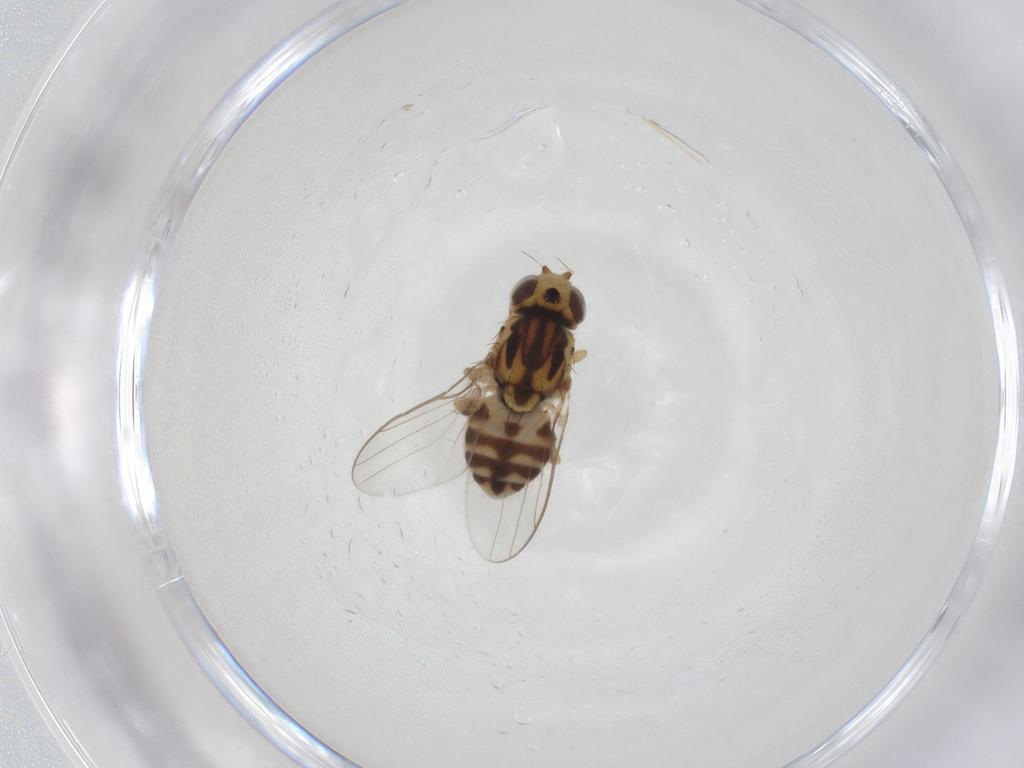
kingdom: Animalia
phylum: Arthropoda
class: Insecta
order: Diptera
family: Chloropidae
